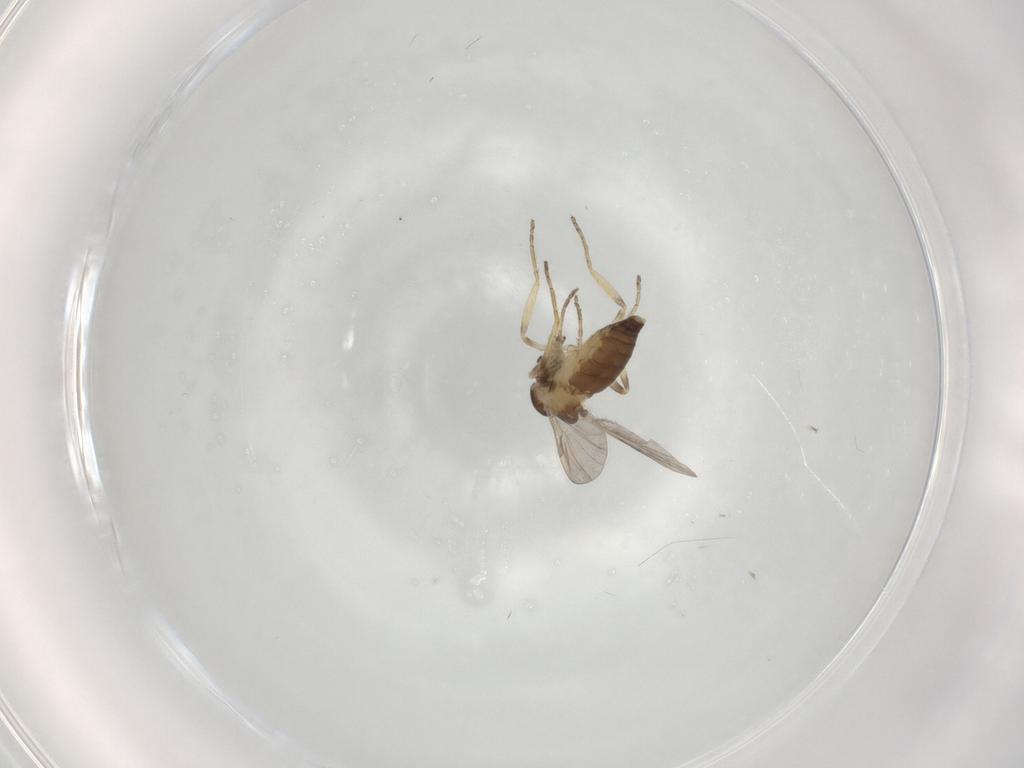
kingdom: Animalia
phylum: Arthropoda
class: Insecta
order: Diptera
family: Ceratopogonidae
